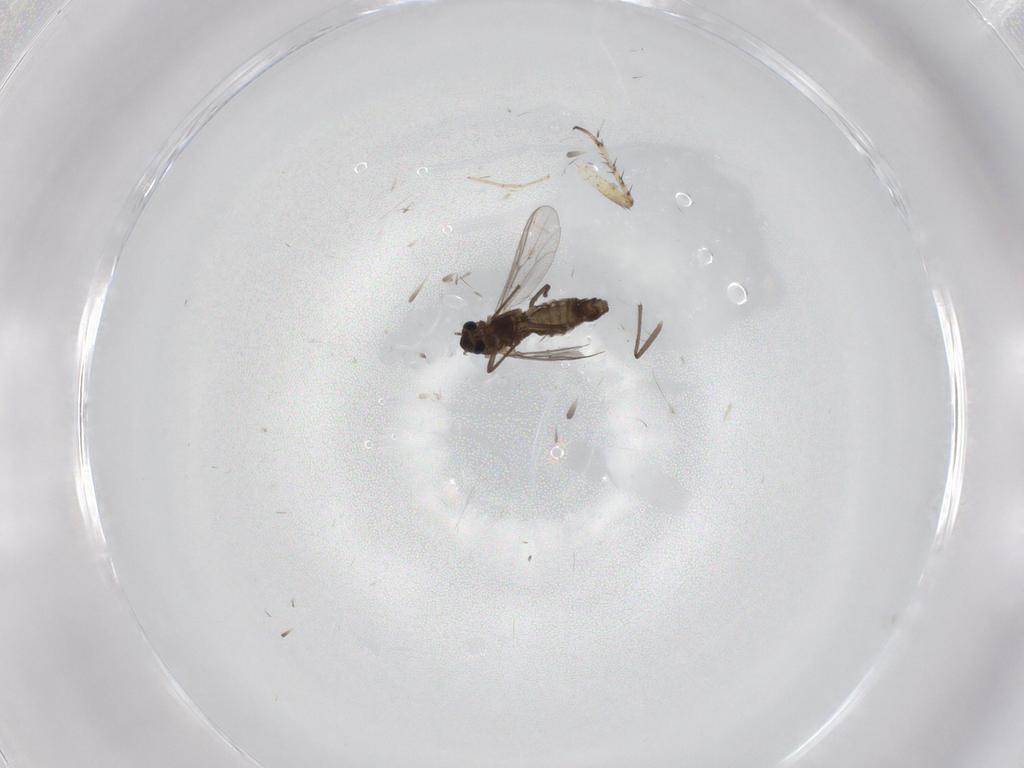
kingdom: Animalia
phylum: Arthropoda
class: Insecta
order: Diptera
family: Chironomidae
